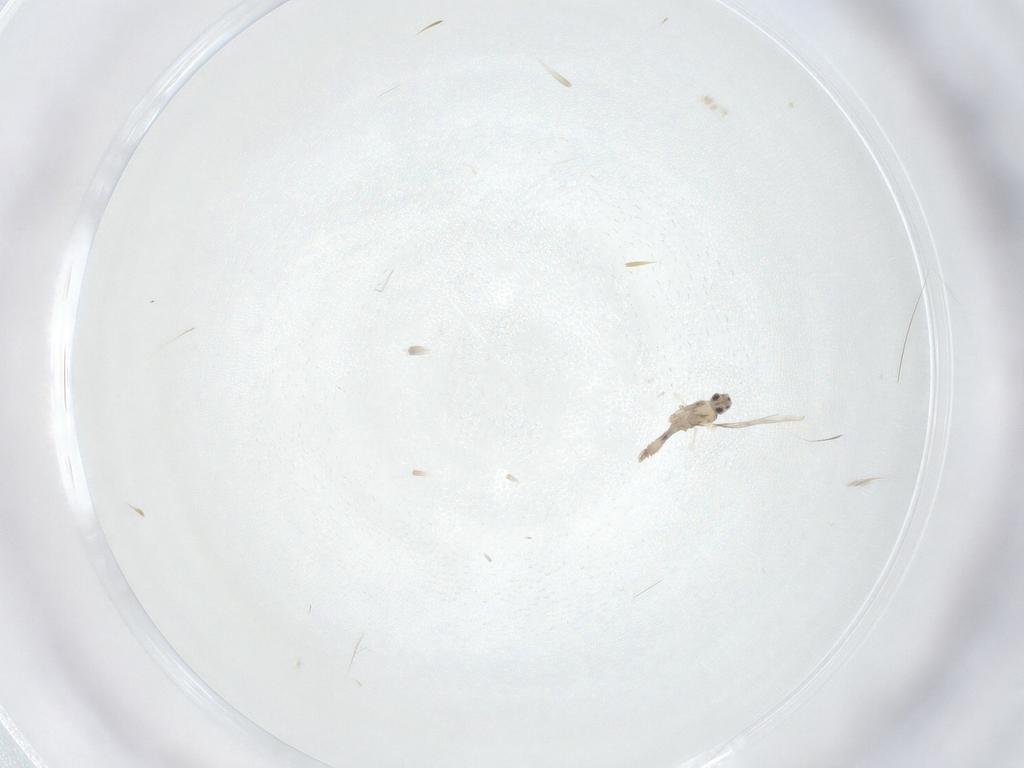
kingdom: Animalia
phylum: Arthropoda
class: Insecta
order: Diptera
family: Cecidomyiidae
